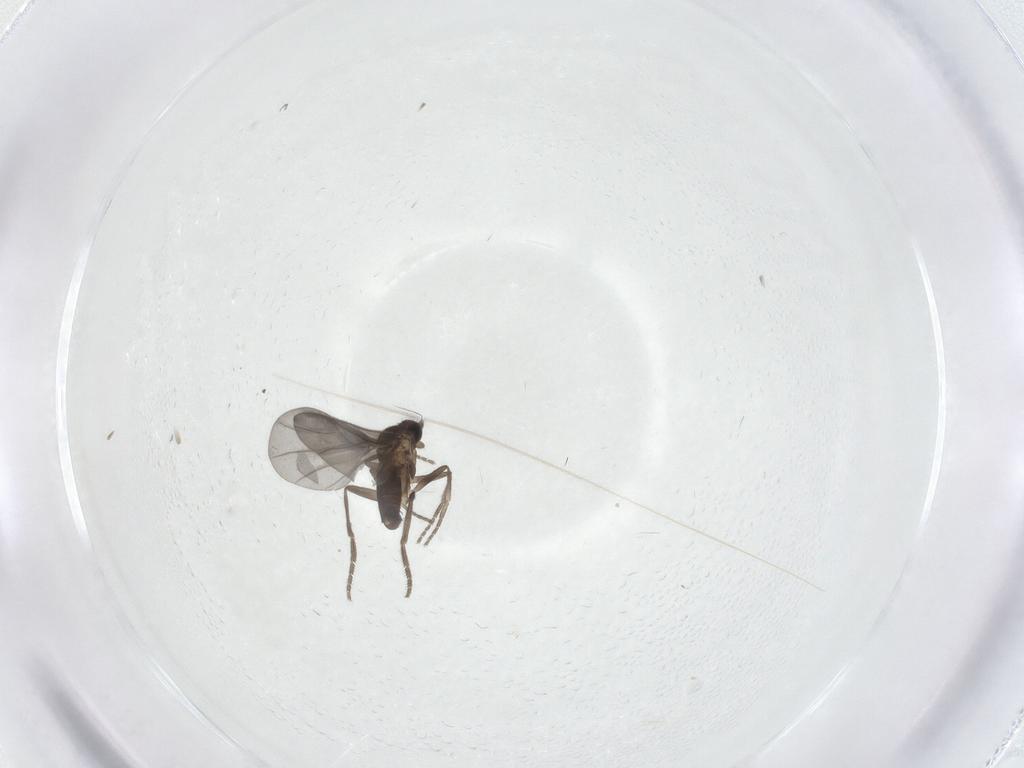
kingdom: Animalia
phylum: Arthropoda
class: Insecta
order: Diptera
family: Phoridae
